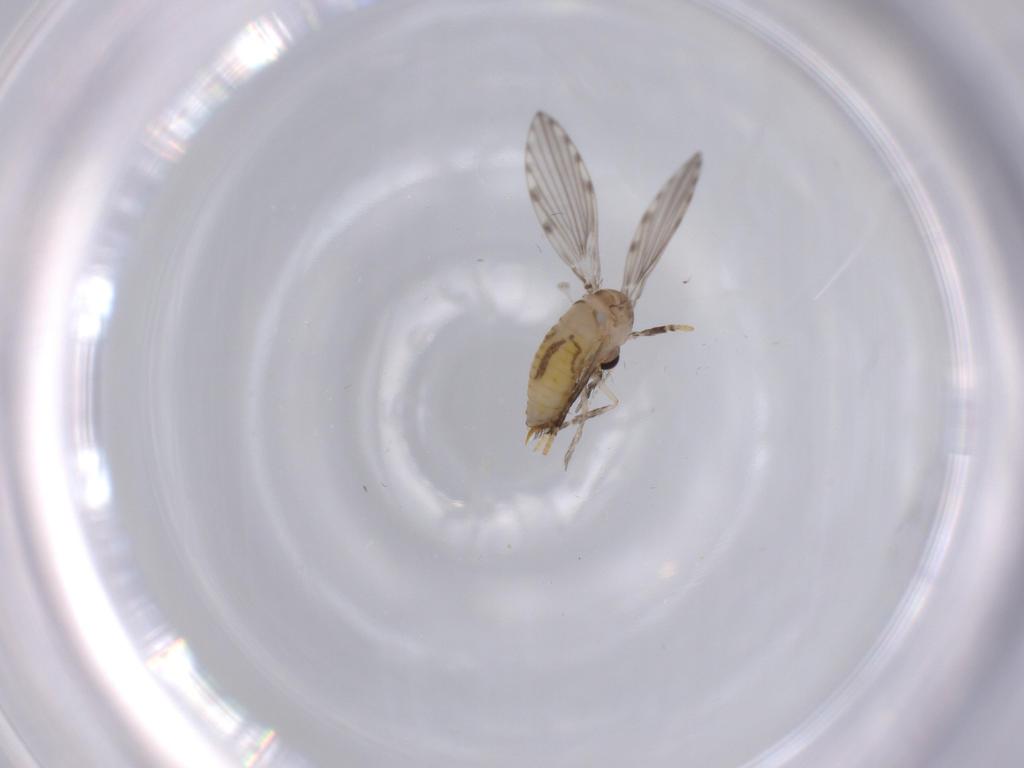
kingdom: Animalia
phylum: Arthropoda
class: Insecta
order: Diptera
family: Psychodidae
